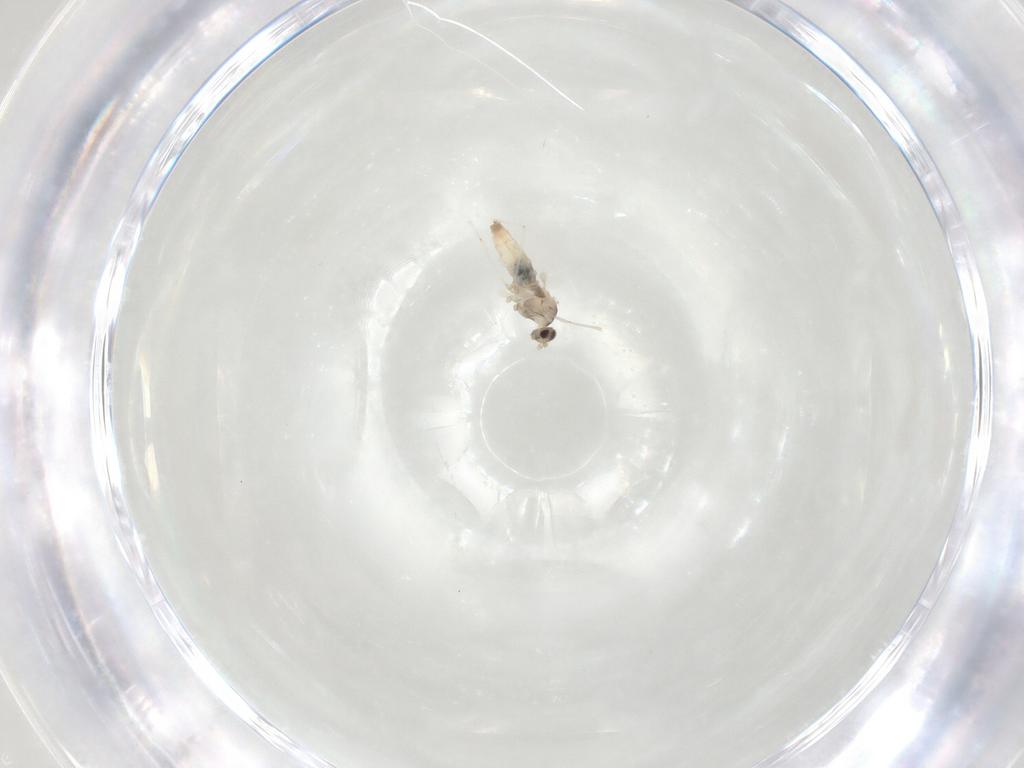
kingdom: Animalia
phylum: Arthropoda
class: Insecta
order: Diptera
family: Cecidomyiidae
